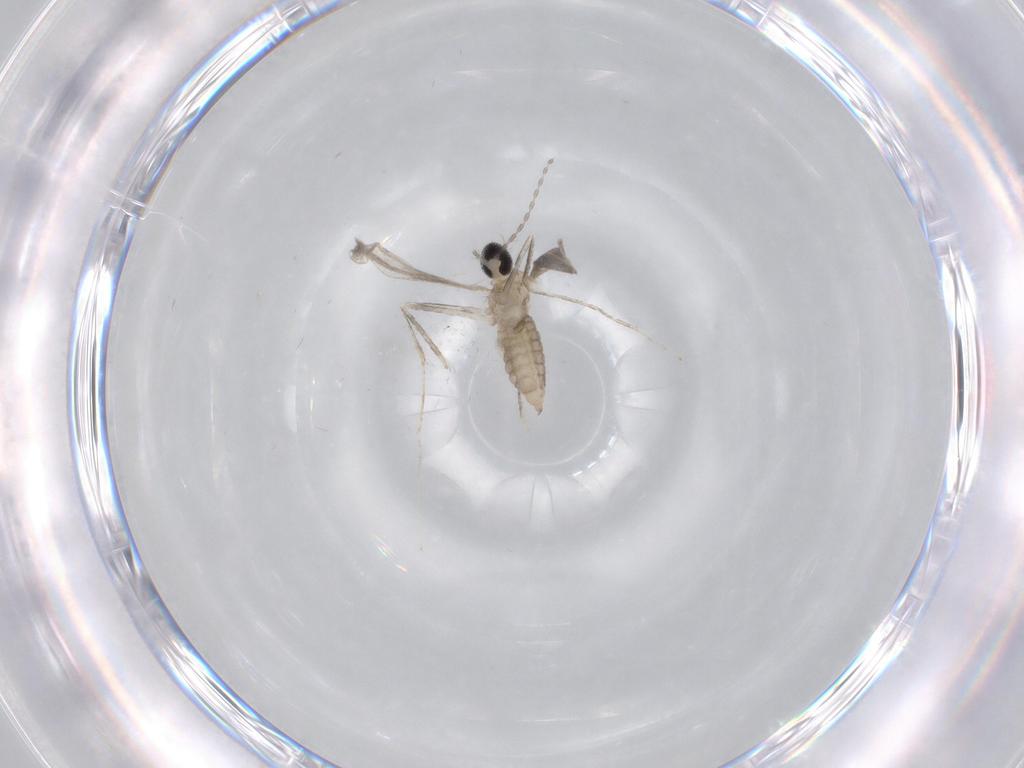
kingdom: Animalia
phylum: Arthropoda
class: Insecta
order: Diptera
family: Cecidomyiidae
